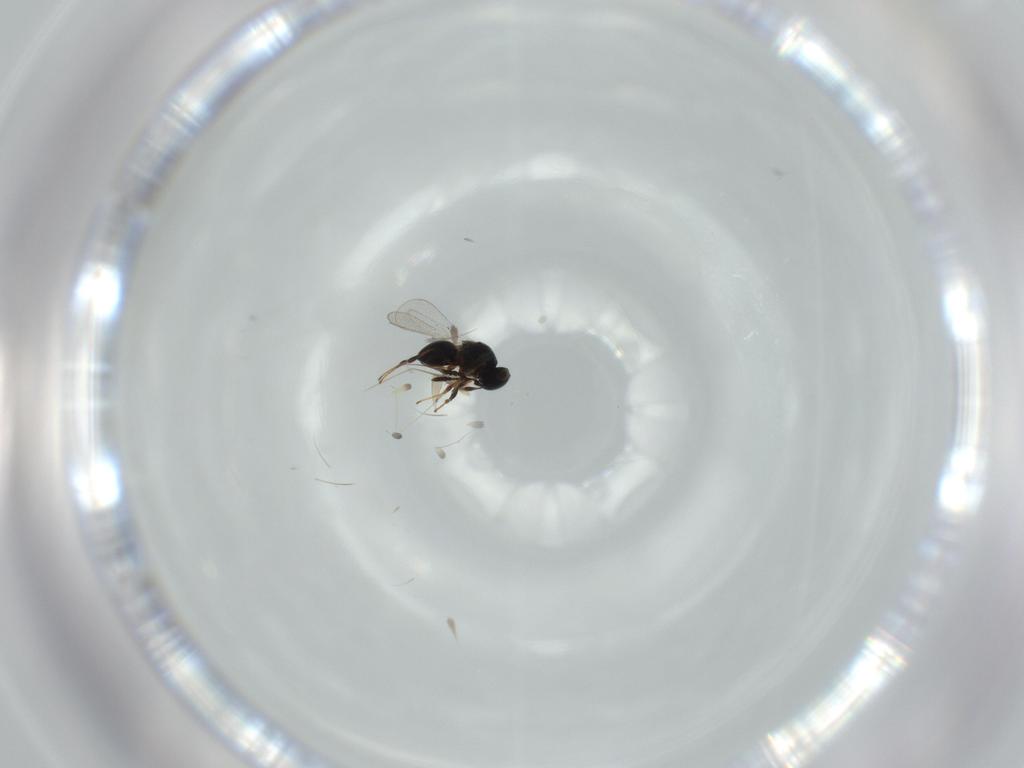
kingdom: Animalia
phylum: Arthropoda
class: Insecta
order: Hymenoptera
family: Platygastridae
